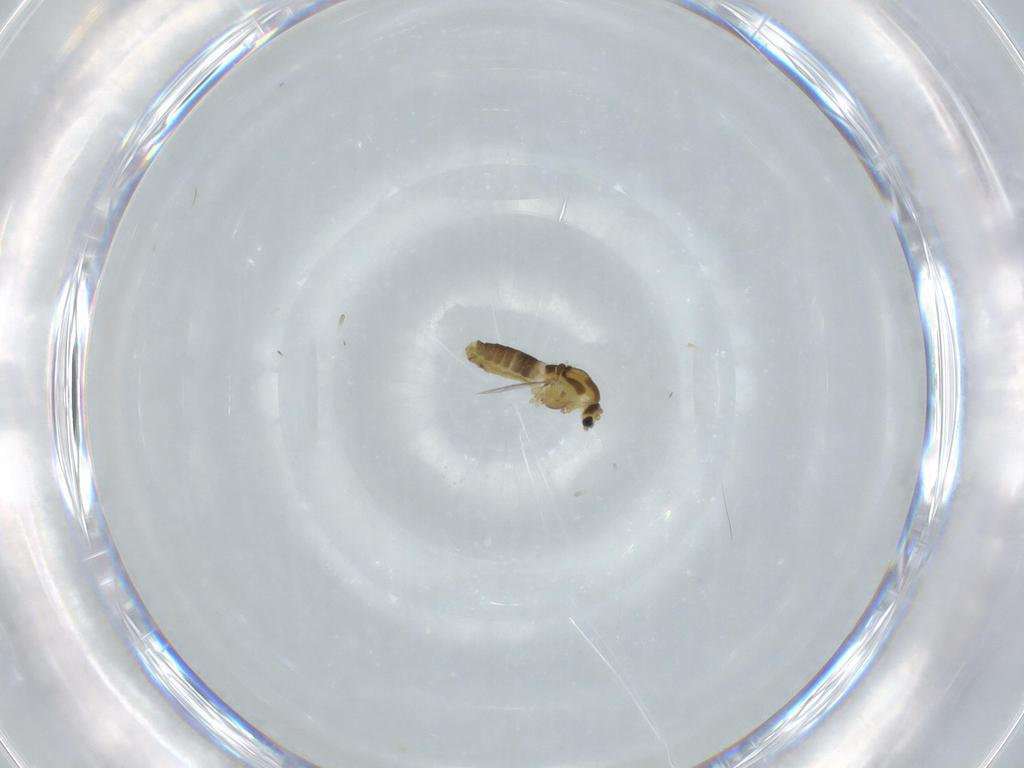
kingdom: Animalia
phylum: Arthropoda
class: Insecta
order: Diptera
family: Chironomidae
